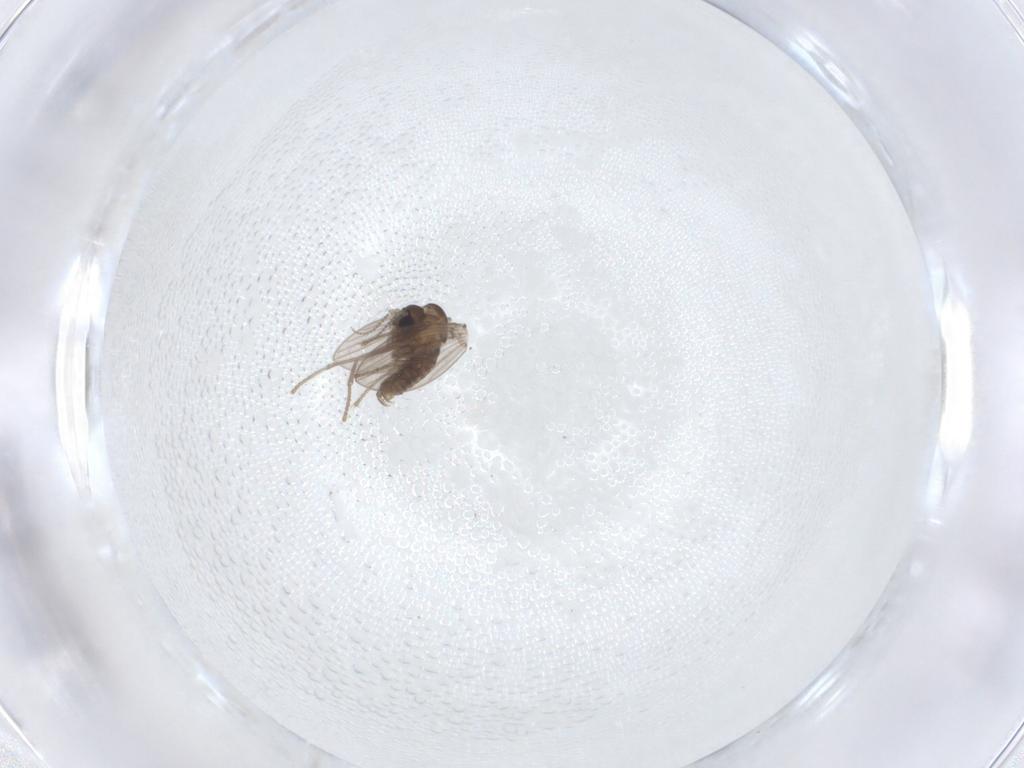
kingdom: Animalia
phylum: Arthropoda
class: Insecta
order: Diptera
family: Psychodidae
